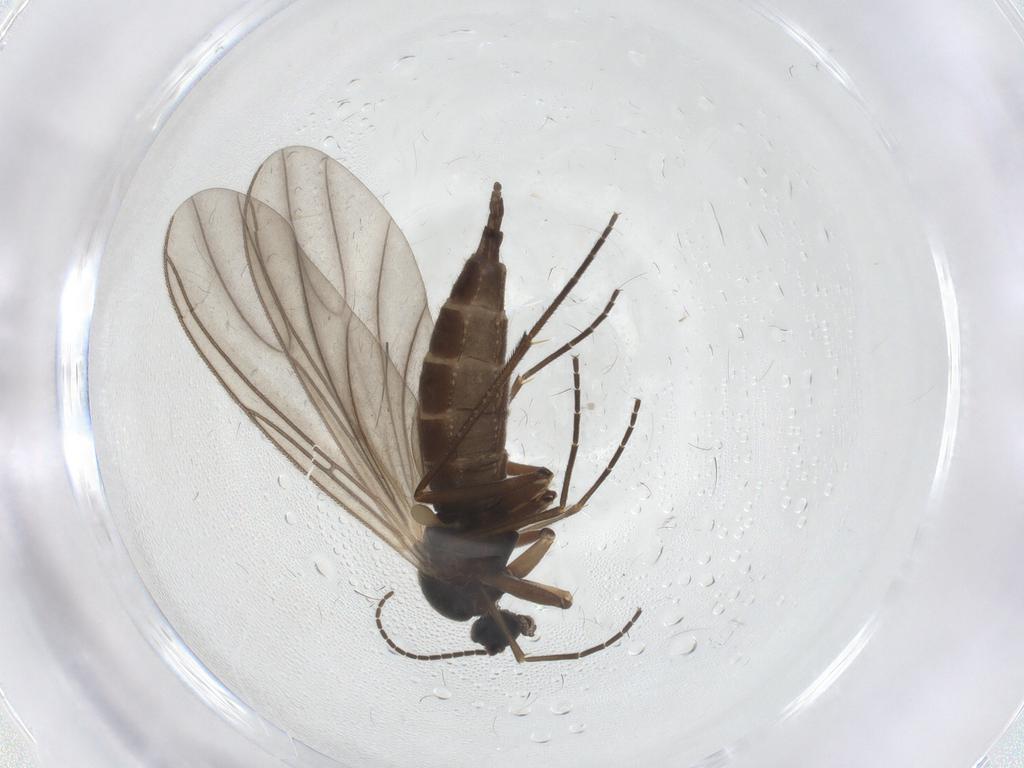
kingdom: Animalia
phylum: Arthropoda
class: Insecta
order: Diptera
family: Sciaridae
